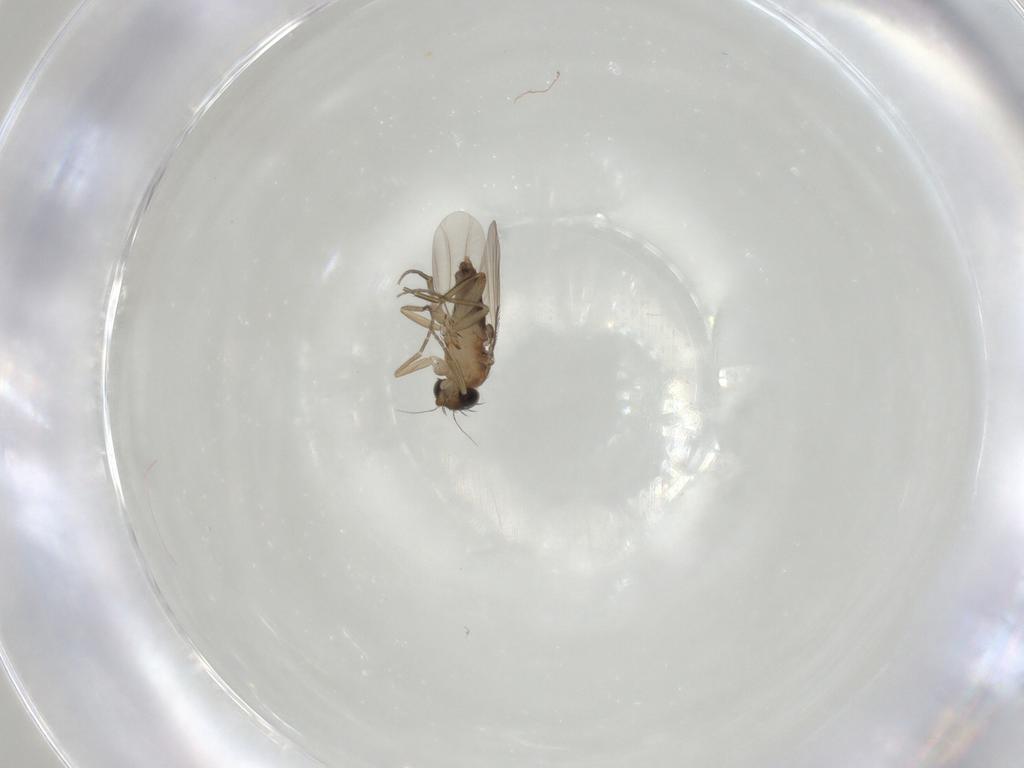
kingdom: Animalia
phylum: Arthropoda
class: Insecta
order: Diptera
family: Phoridae
